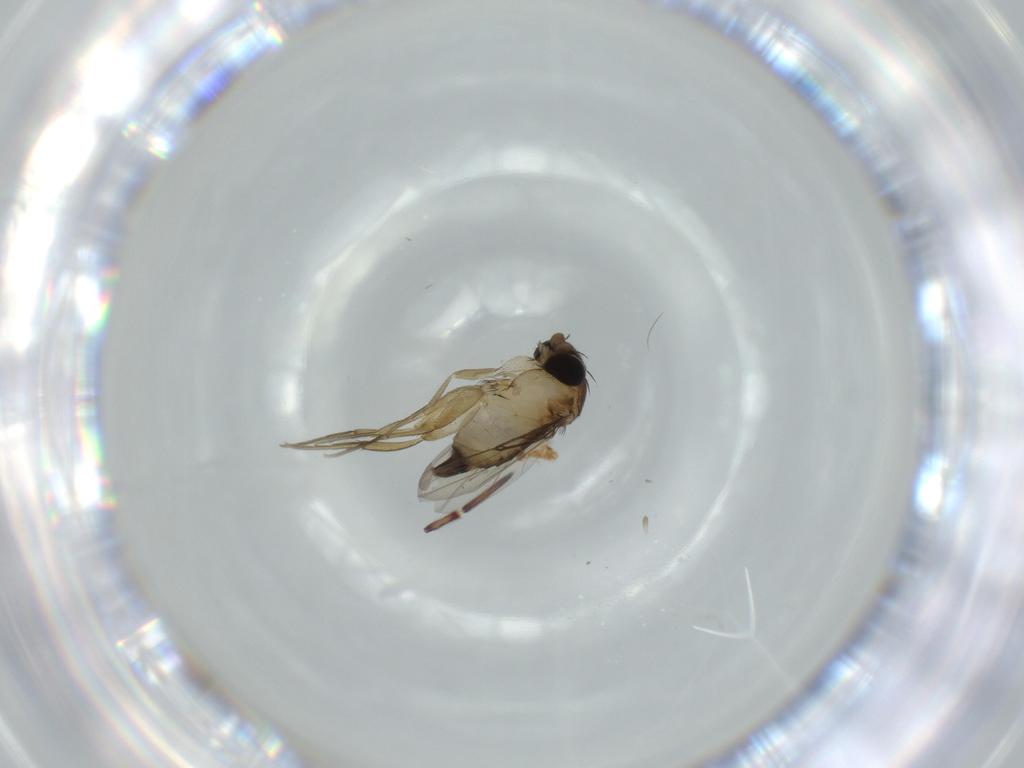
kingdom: Animalia
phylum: Arthropoda
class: Insecta
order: Diptera
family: Phoridae
